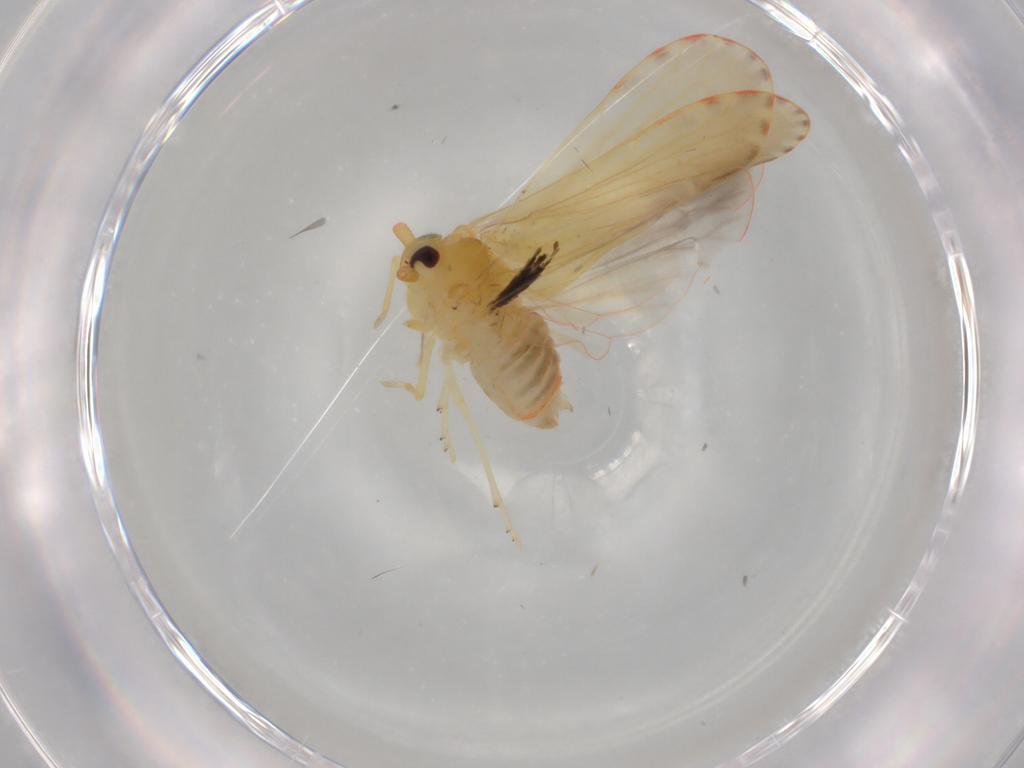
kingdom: Animalia
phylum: Arthropoda
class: Insecta
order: Hemiptera
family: Derbidae
